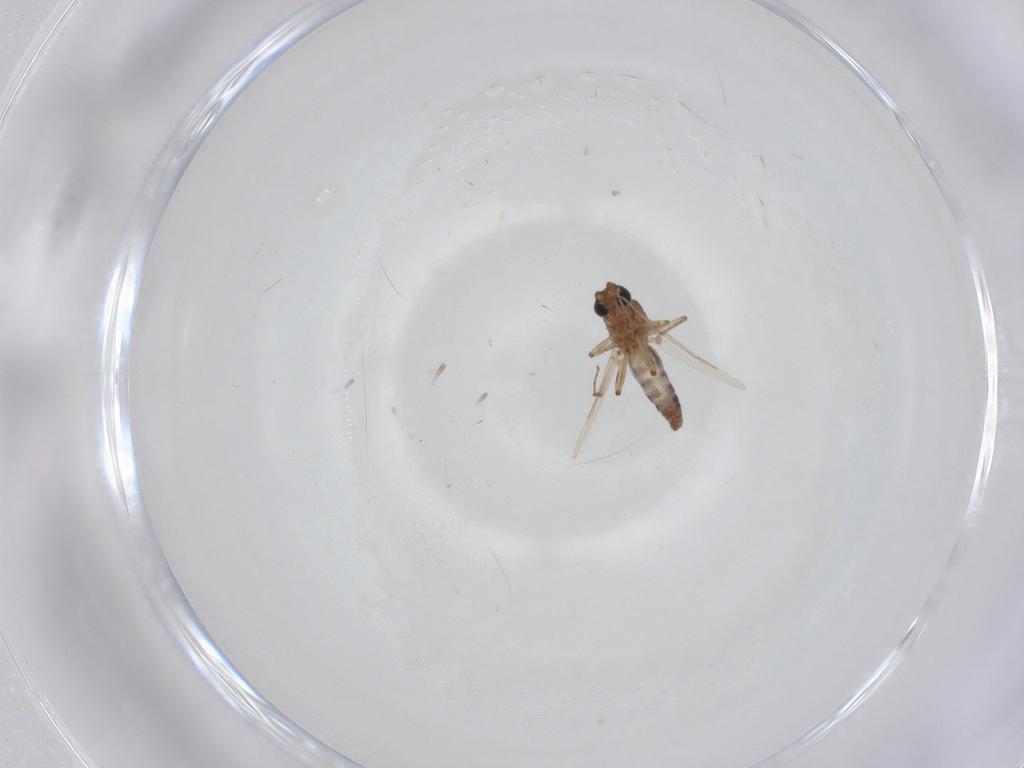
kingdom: Animalia
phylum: Arthropoda
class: Insecta
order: Diptera
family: Ceratopogonidae
